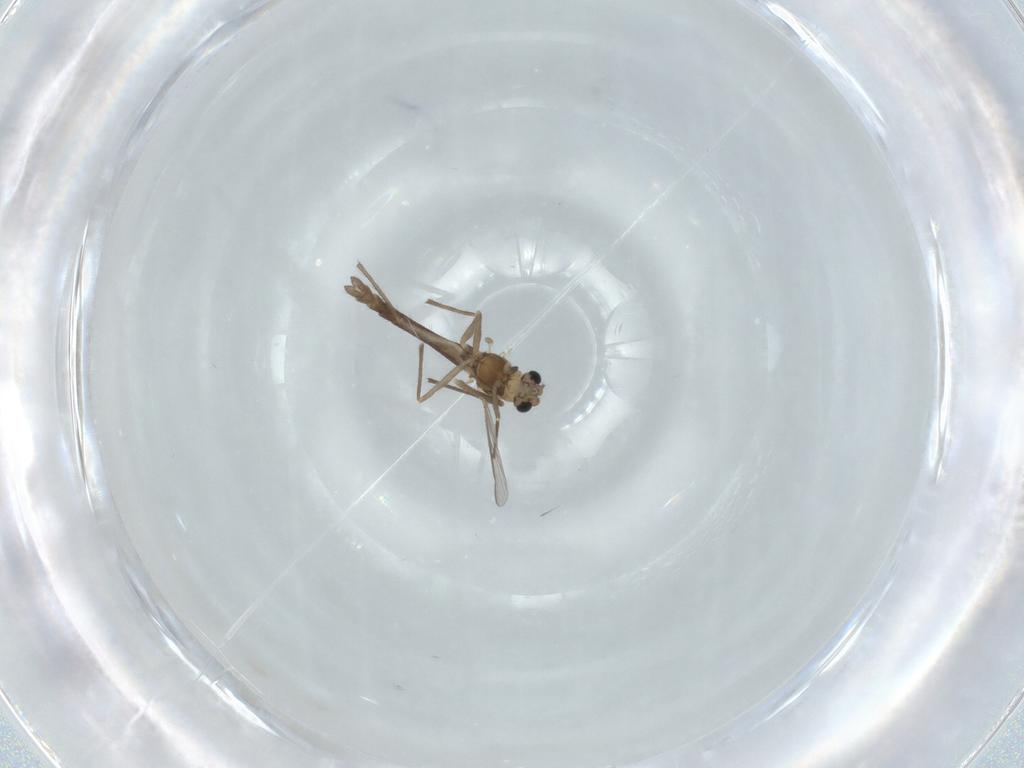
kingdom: Animalia
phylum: Arthropoda
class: Insecta
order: Diptera
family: Chironomidae
